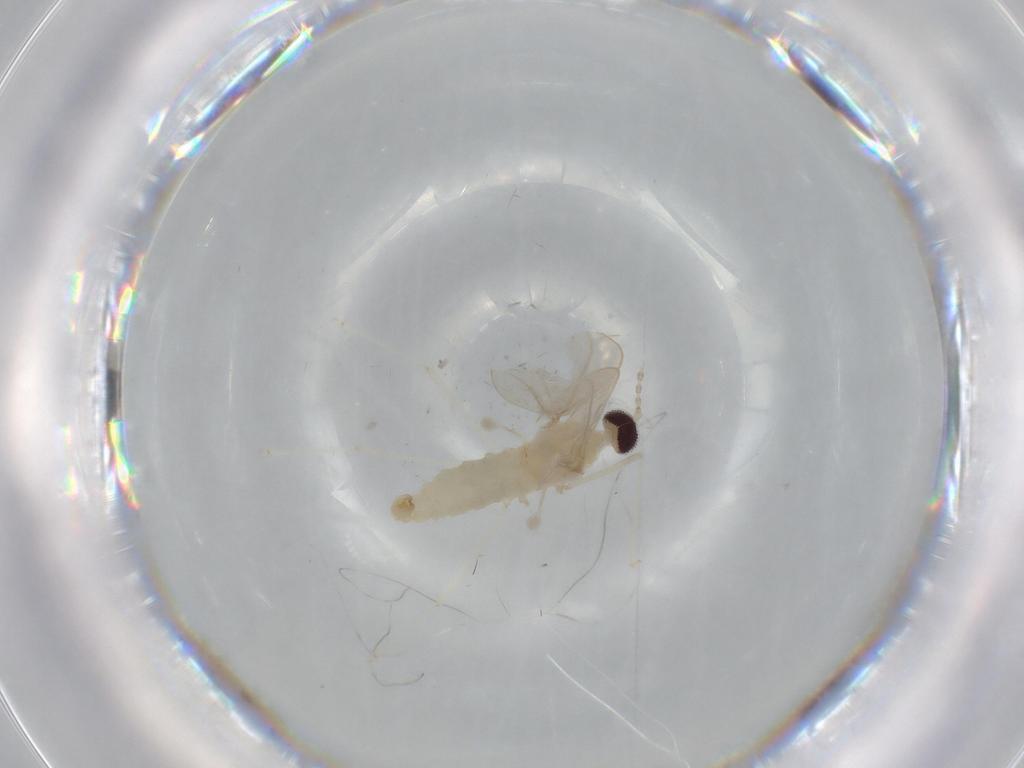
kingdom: Animalia
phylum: Arthropoda
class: Insecta
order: Diptera
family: Cecidomyiidae
